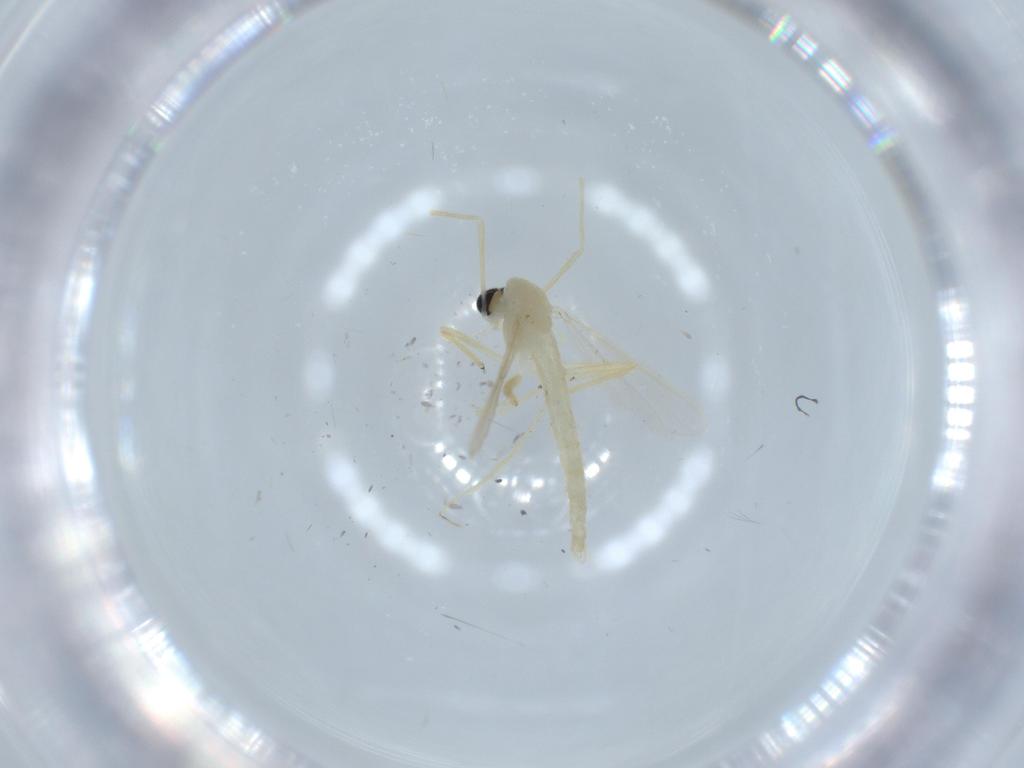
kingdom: Animalia
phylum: Arthropoda
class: Insecta
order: Diptera
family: Chironomidae
